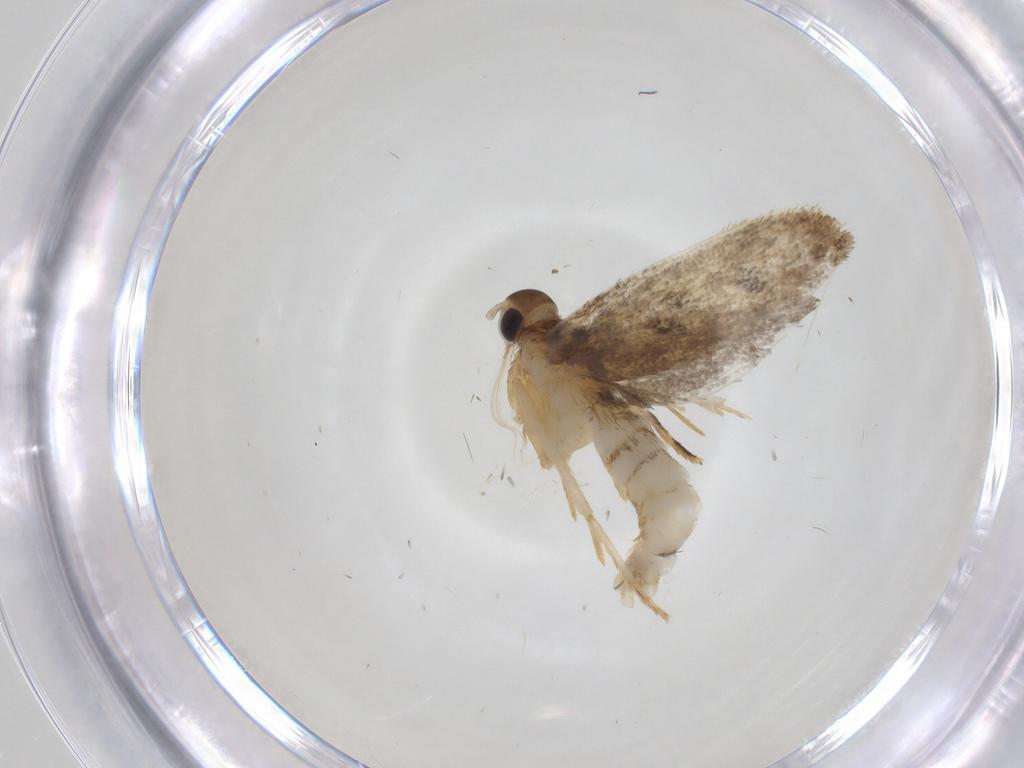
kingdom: Animalia
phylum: Arthropoda
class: Insecta
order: Lepidoptera
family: Oecophoridae
